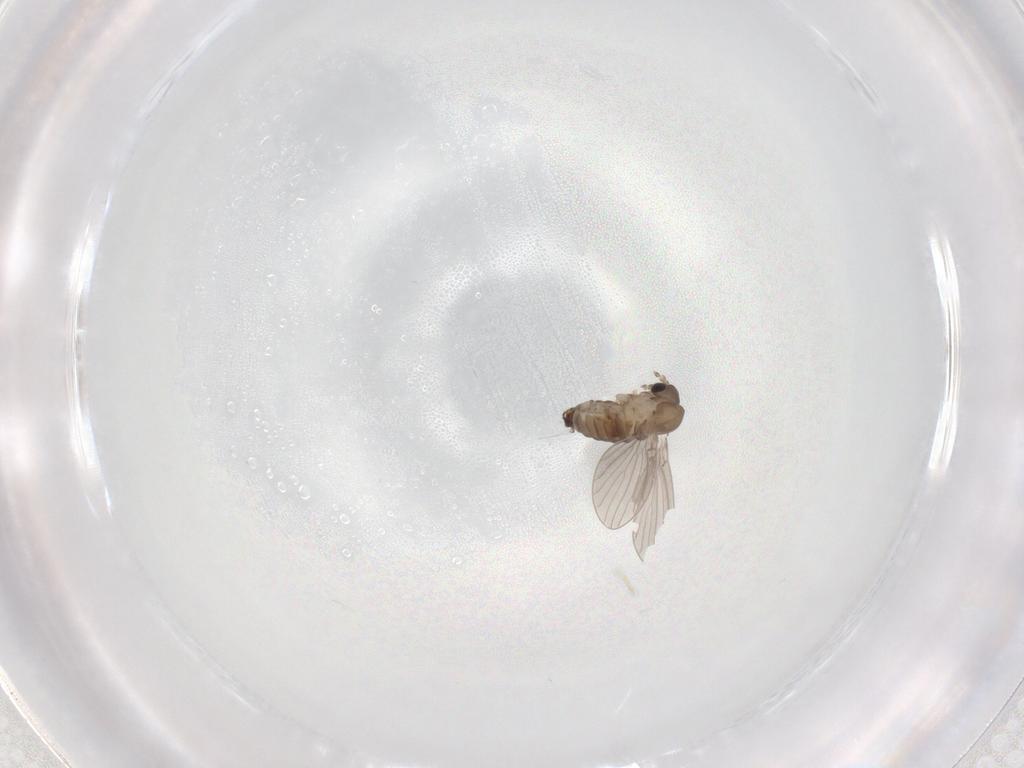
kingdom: Animalia
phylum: Arthropoda
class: Insecta
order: Diptera
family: Psychodidae
